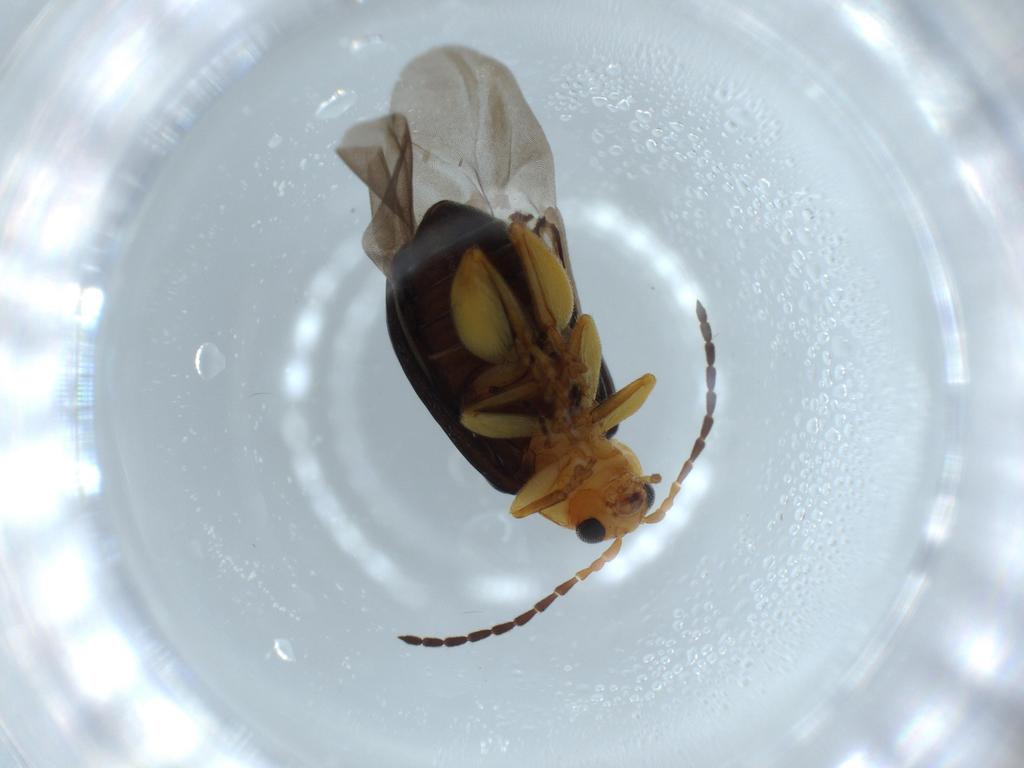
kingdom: Animalia
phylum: Arthropoda
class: Insecta
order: Coleoptera
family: Chrysomelidae
